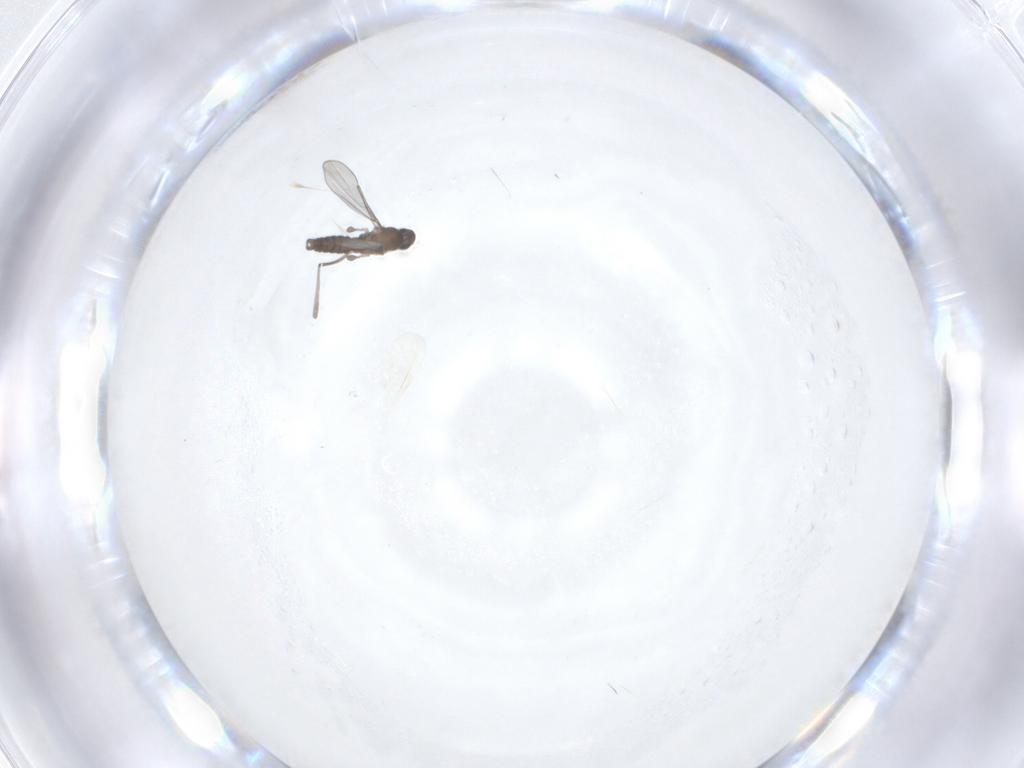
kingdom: Animalia
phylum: Arthropoda
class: Insecta
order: Diptera
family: Cecidomyiidae
